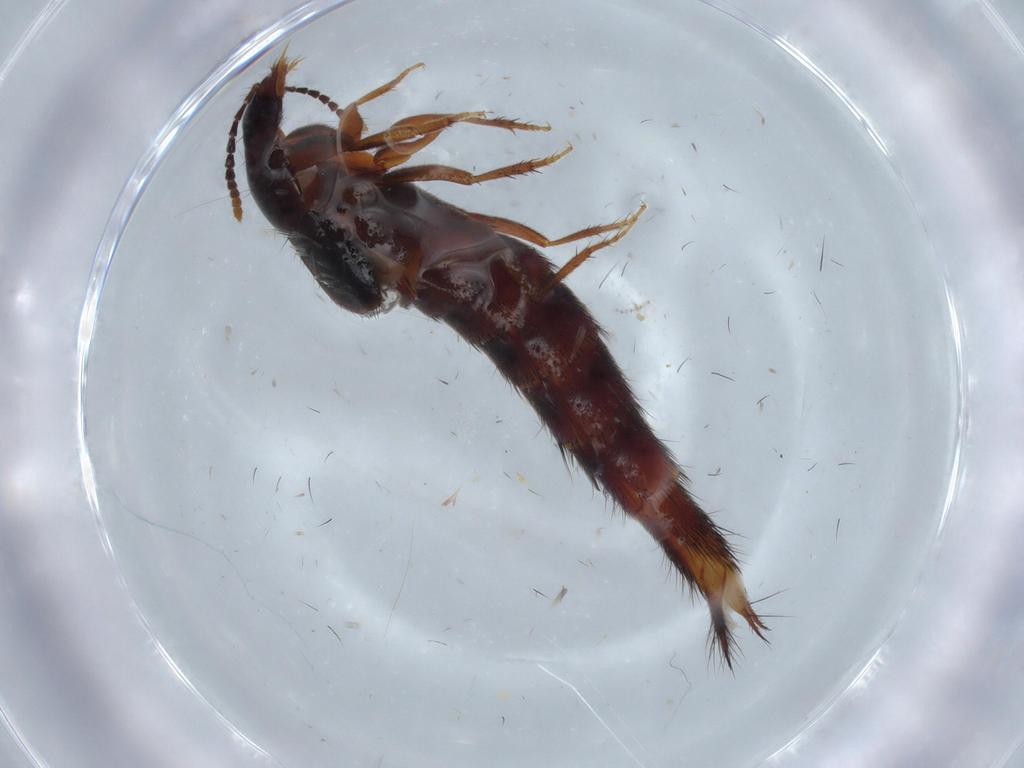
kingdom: Animalia
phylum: Arthropoda
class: Insecta
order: Coleoptera
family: Staphylinidae
